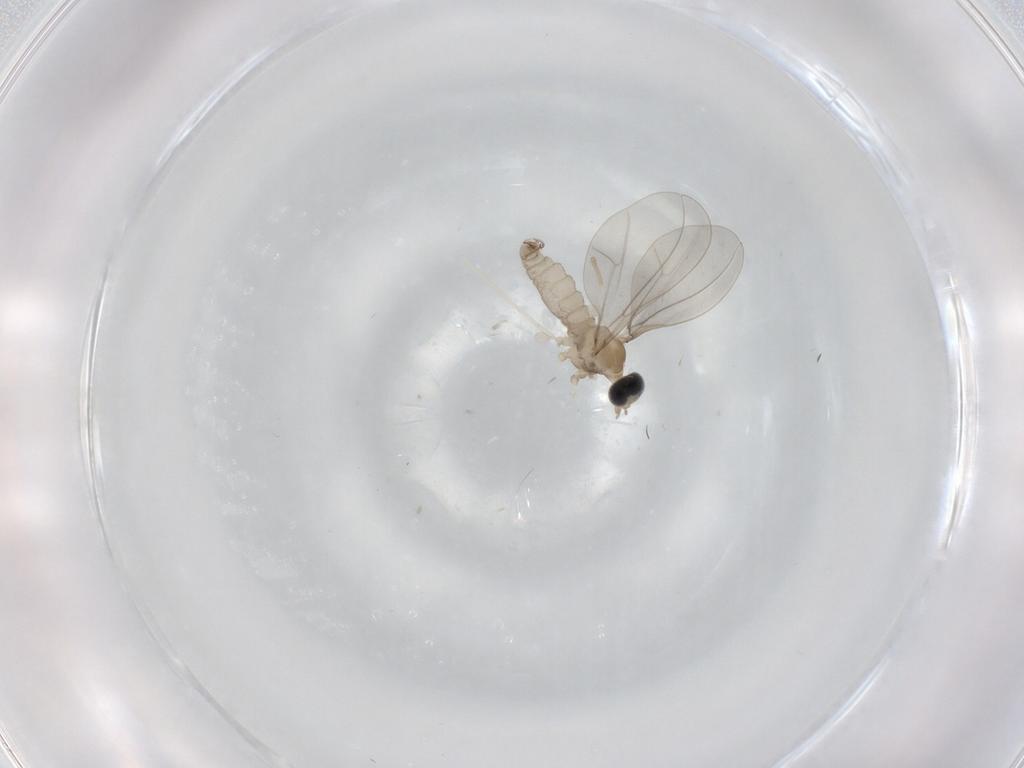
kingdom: Animalia
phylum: Arthropoda
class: Insecta
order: Diptera
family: Cecidomyiidae
